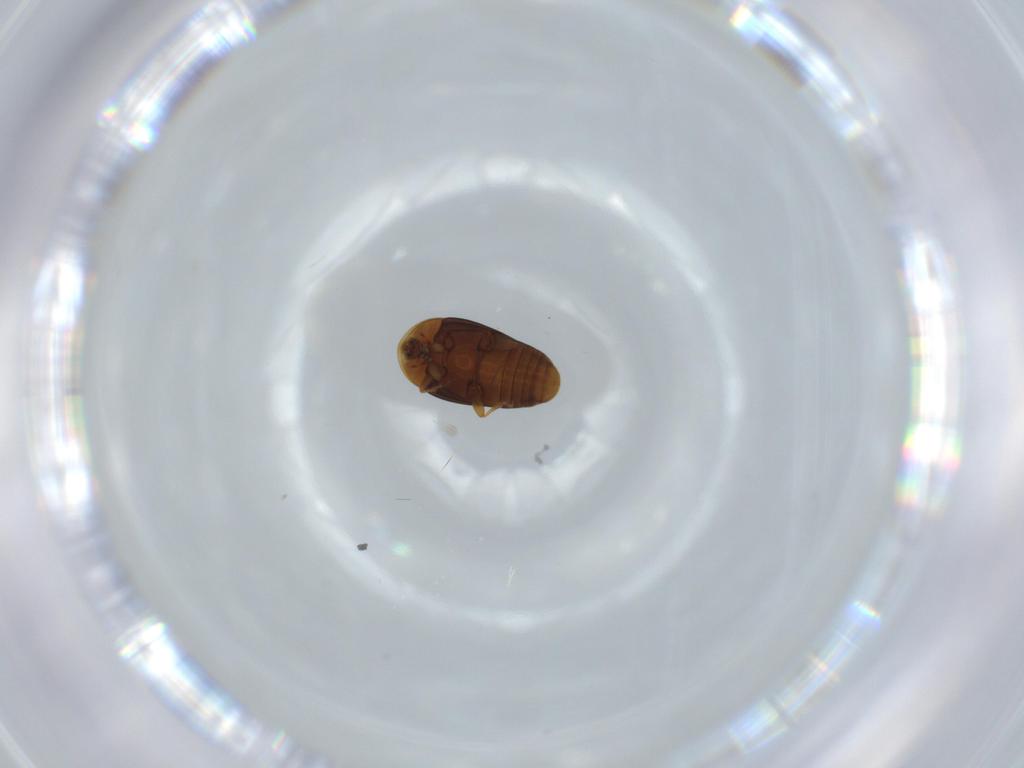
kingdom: Animalia
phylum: Arthropoda
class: Insecta
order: Coleoptera
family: Corylophidae
